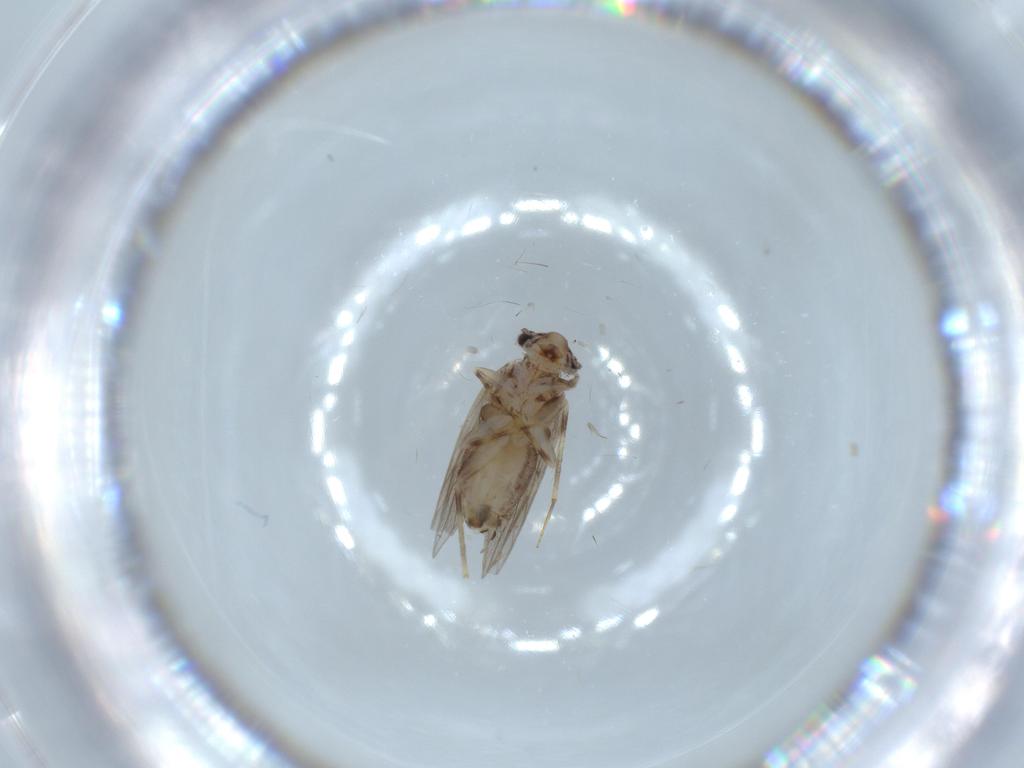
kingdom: Animalia
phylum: Arthropoda
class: Insecta
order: Psocodea
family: Lepidopsocidae
